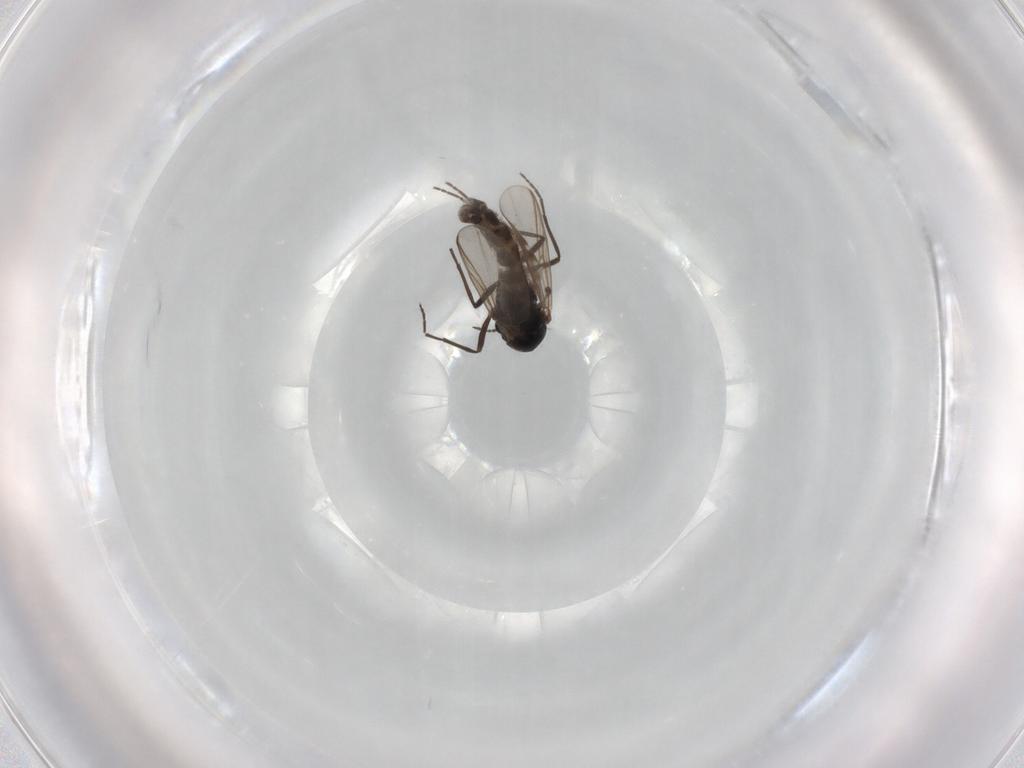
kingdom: Animalia
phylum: Arthropoda
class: Insecta
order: Diptera
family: Chironomidae
